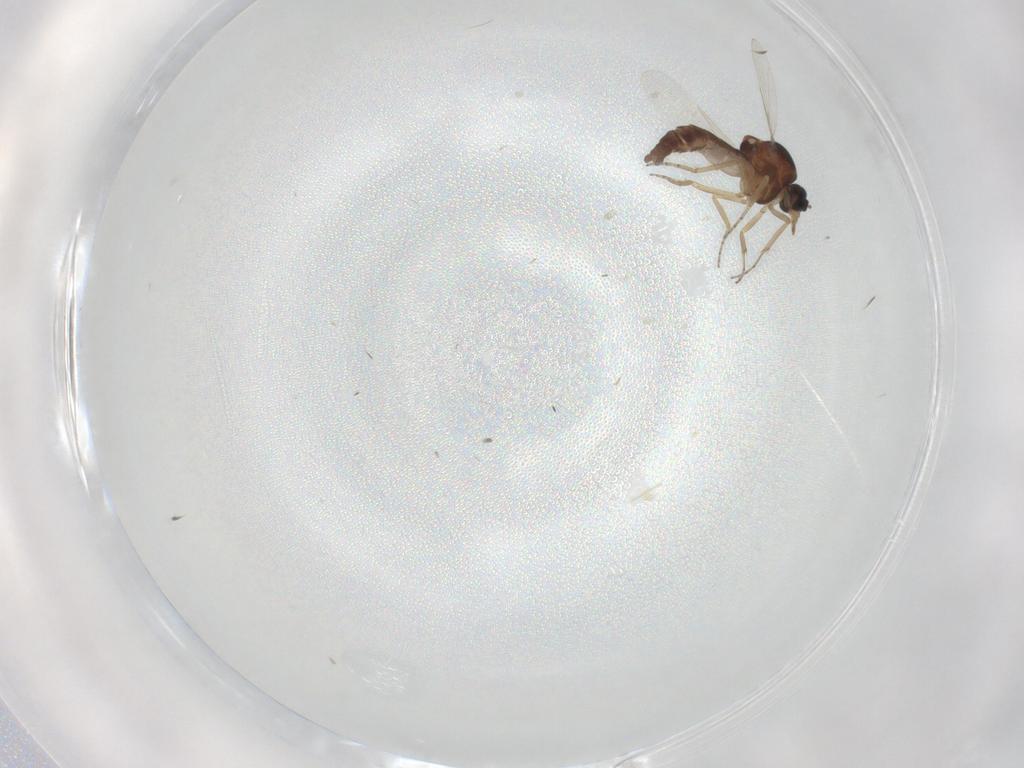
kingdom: Animalia
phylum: Arthropoda
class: Insecta
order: Diptera
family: Ceratopogonidae
